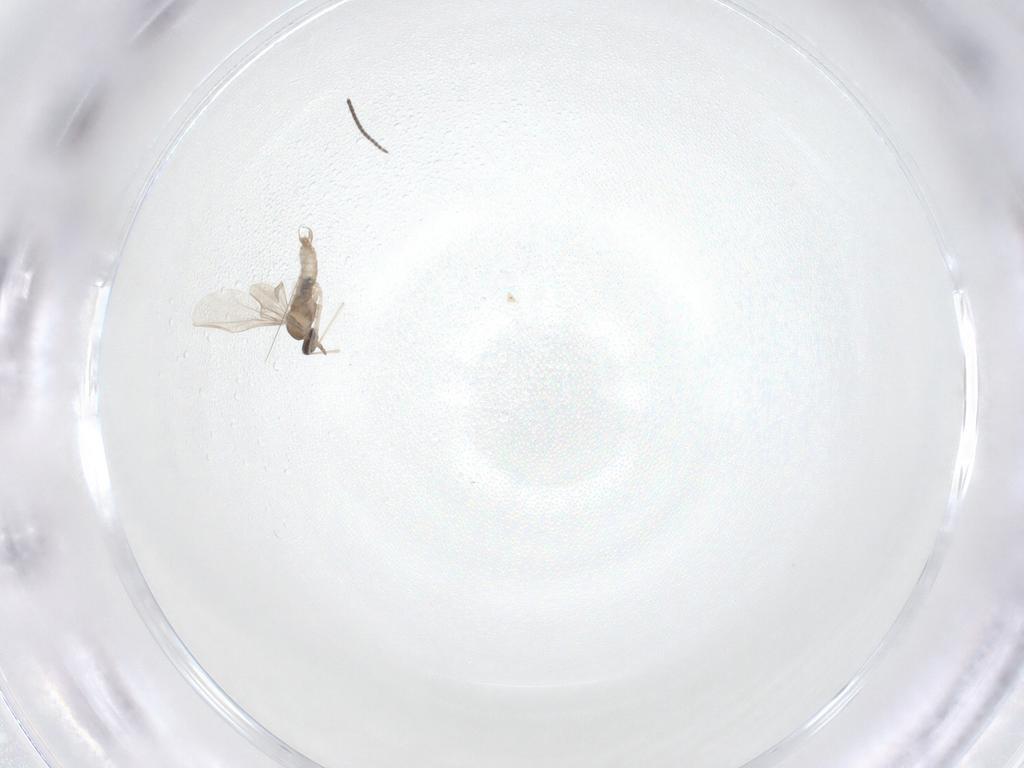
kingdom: Animalia
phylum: Arthropoda
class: Insecta
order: Diptera
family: Cecidomyiidae
